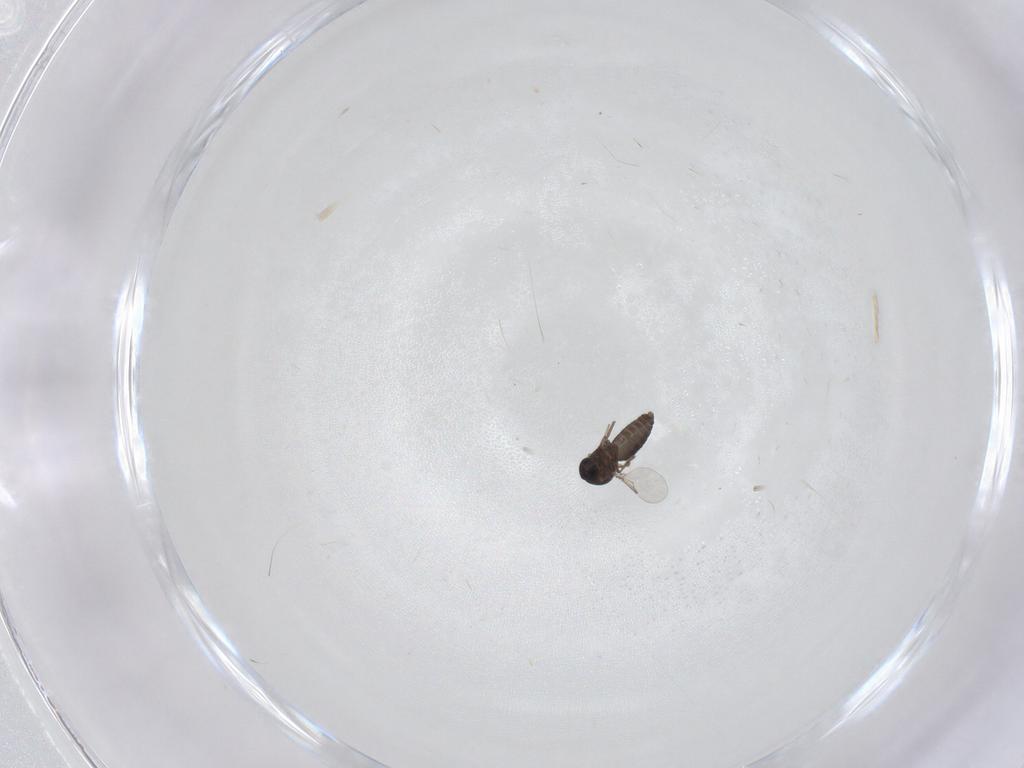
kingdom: Animalia
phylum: Arthropoda
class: Insecta
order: Diptera
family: Ceratopogonidae
